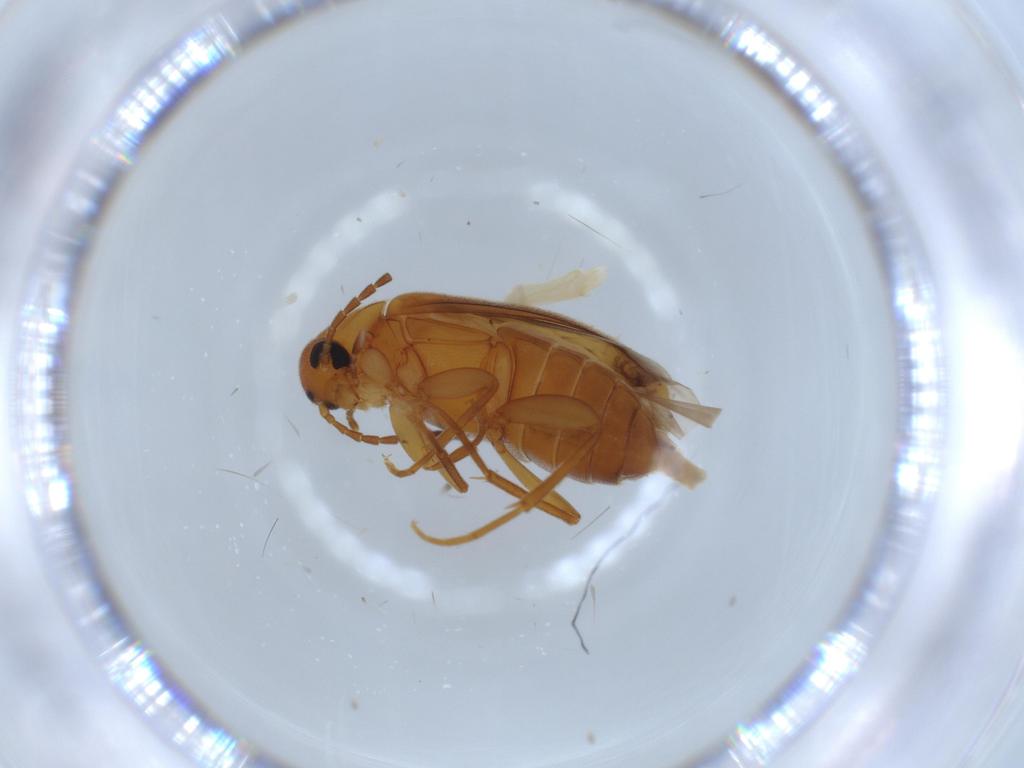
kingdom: Animalia
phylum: Arthropoda
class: Insecta
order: Coleoptera
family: Scraptiidae
